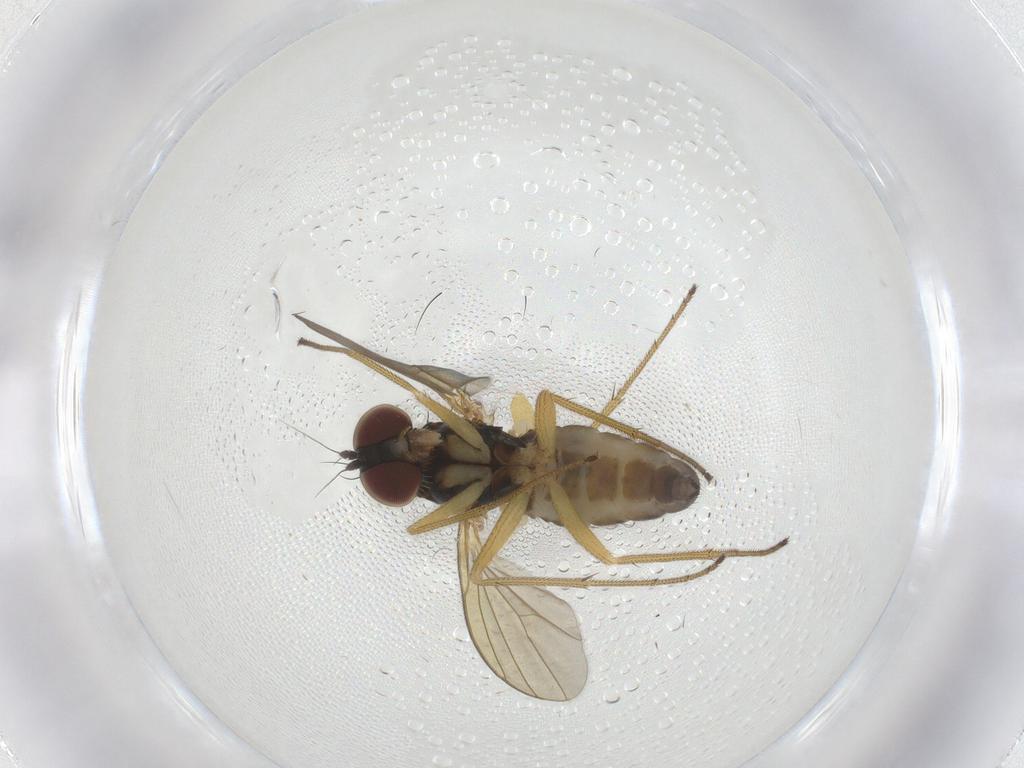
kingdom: Animalia
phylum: Arthropoda
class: Insecta
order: Diptera
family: Dolichopodidae
